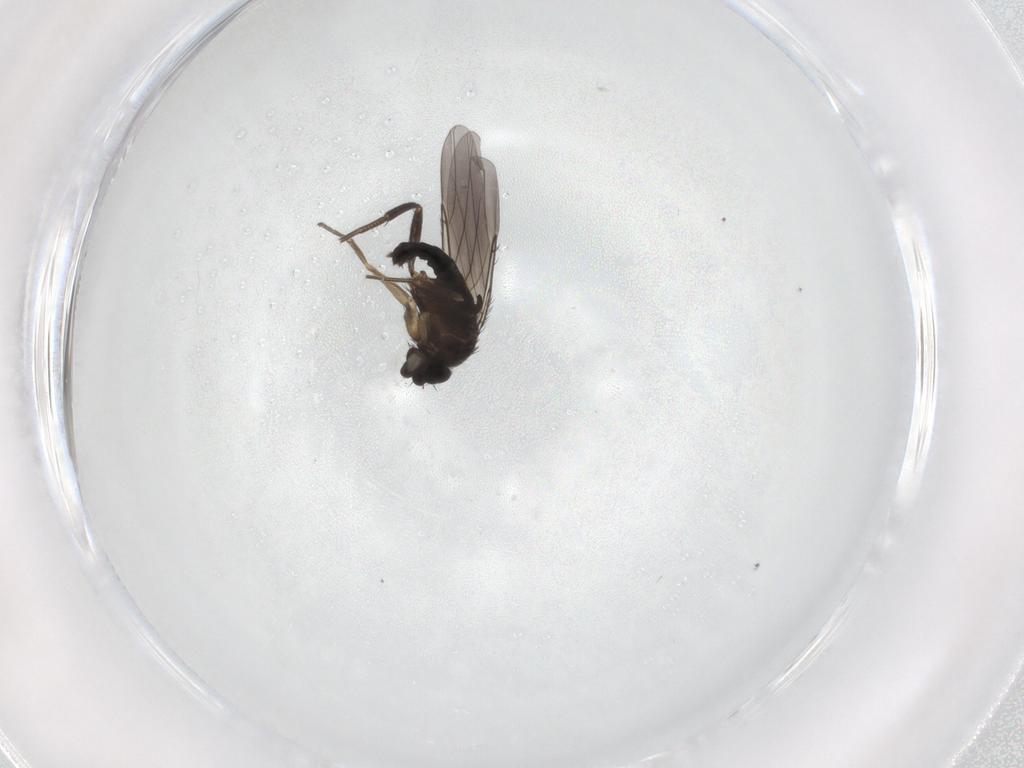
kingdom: Animalia
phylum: Arthropoda
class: Insecta
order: Diptera
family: Phoridae
